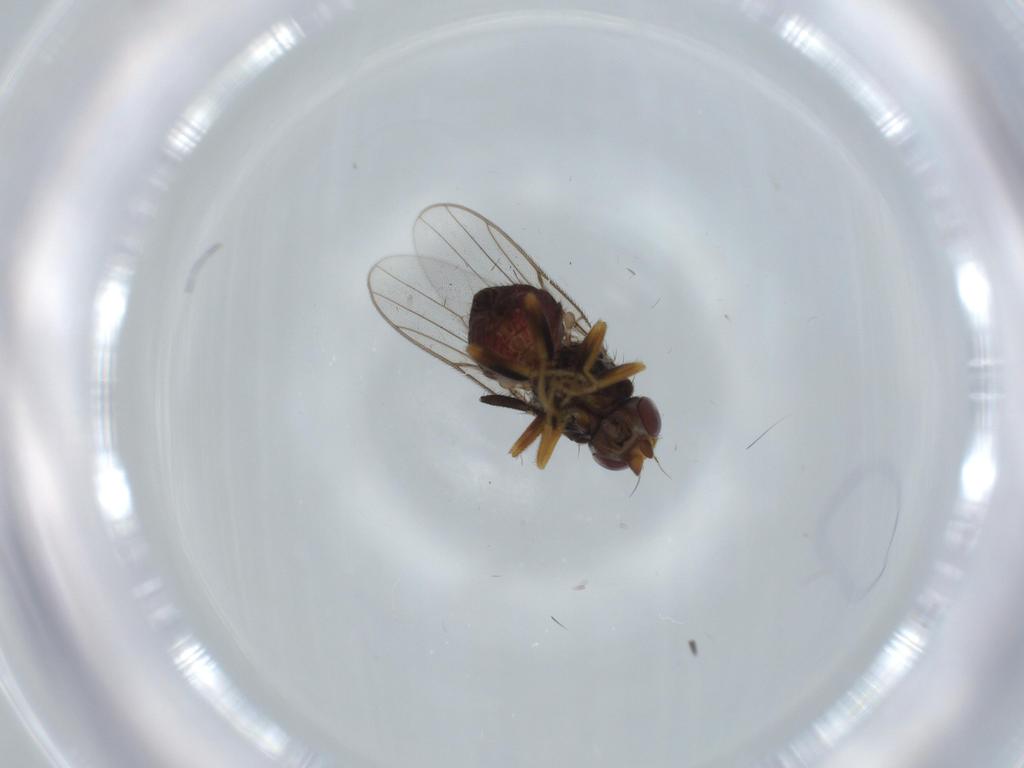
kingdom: Animalia
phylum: Arthropoda
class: Insecta
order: Diptera
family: Chloropidae
